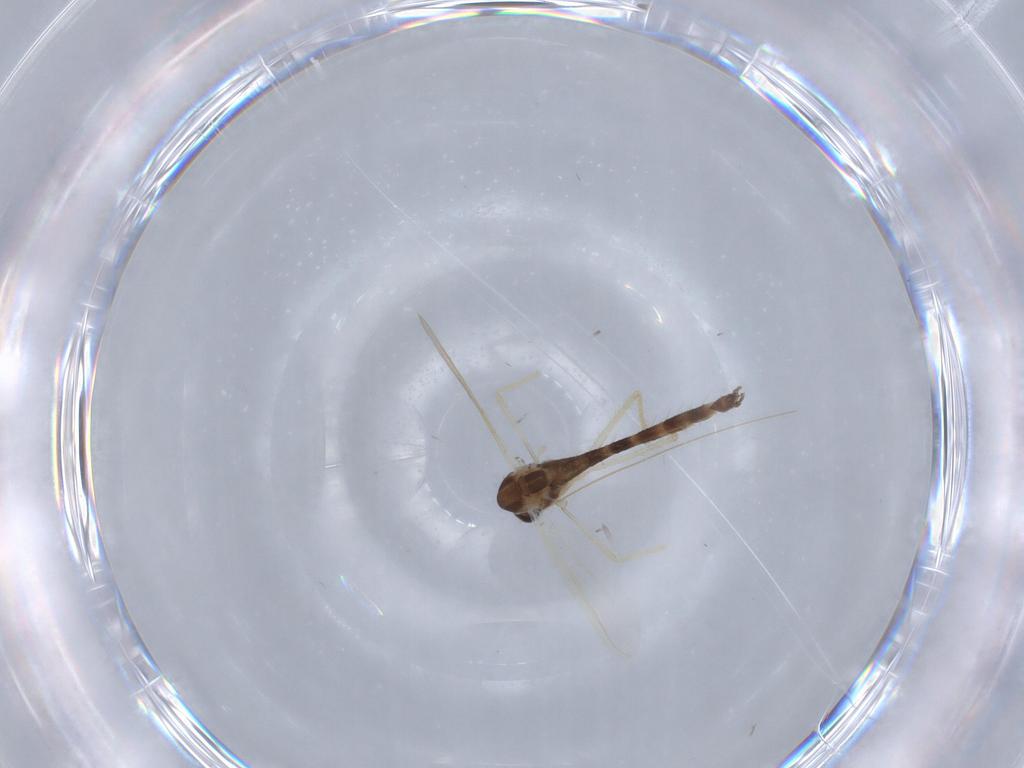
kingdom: Animalia
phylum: Arthropoda
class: Insecta
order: Diptera
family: Chironomidae
